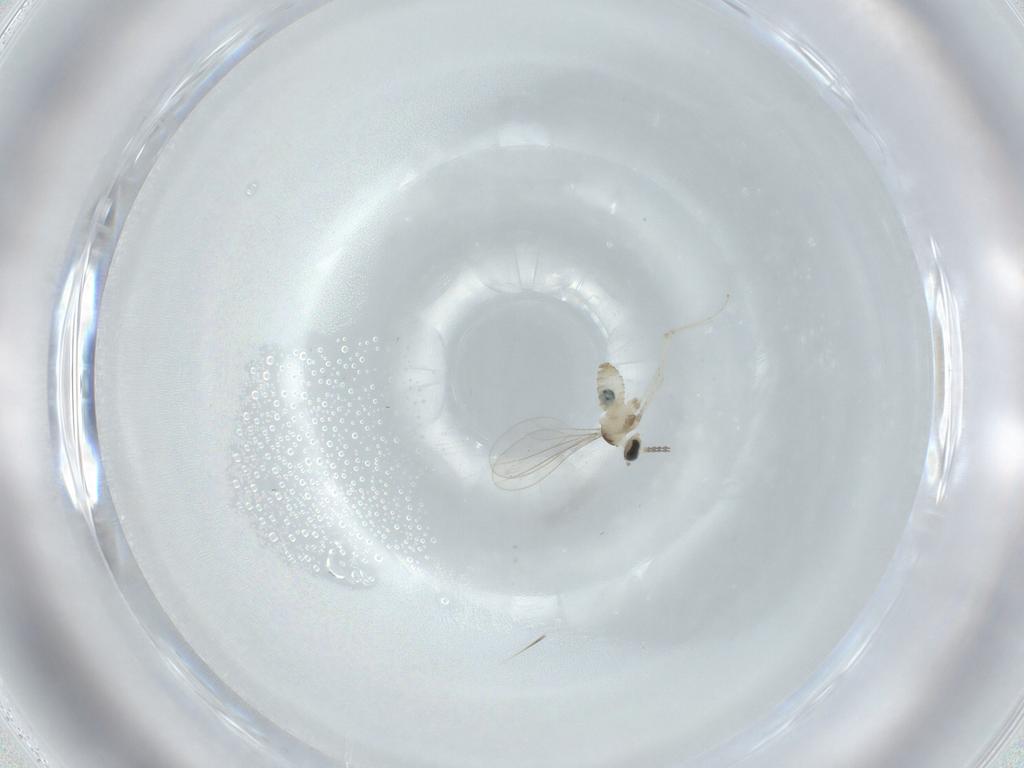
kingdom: Animalia
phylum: Arthropoda
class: Insecta
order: Diptera
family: Cecidomyiidae
